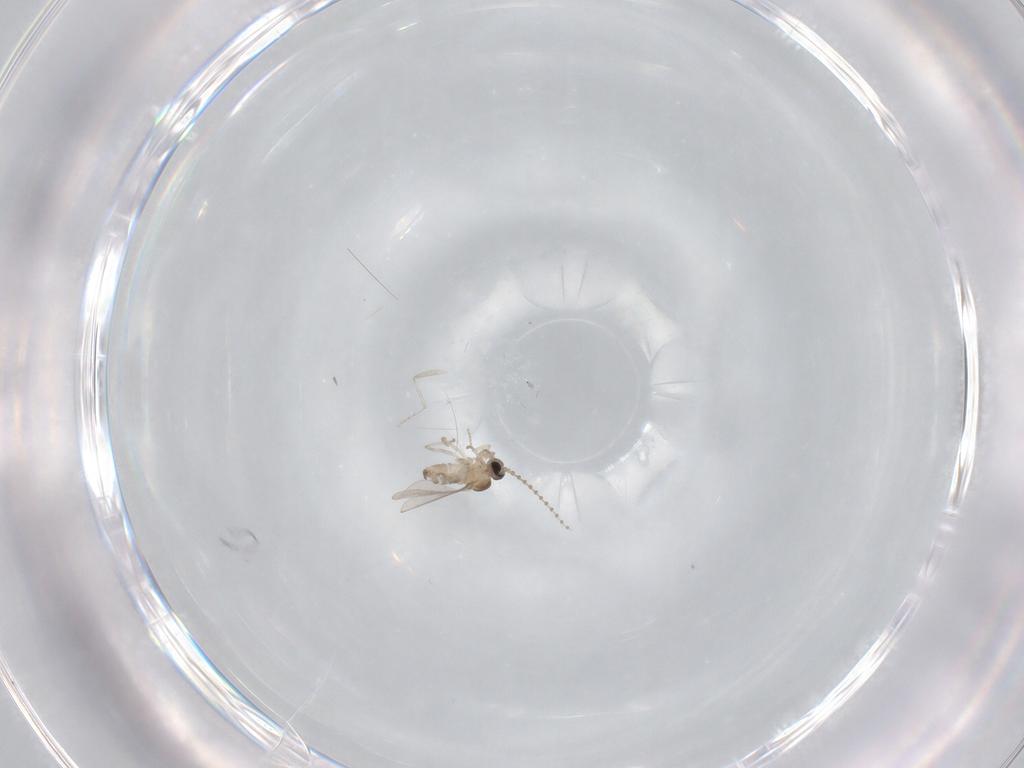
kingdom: Animalia
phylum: Arthropoda
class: Insecta
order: Diptera
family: Cecidomyiidae
